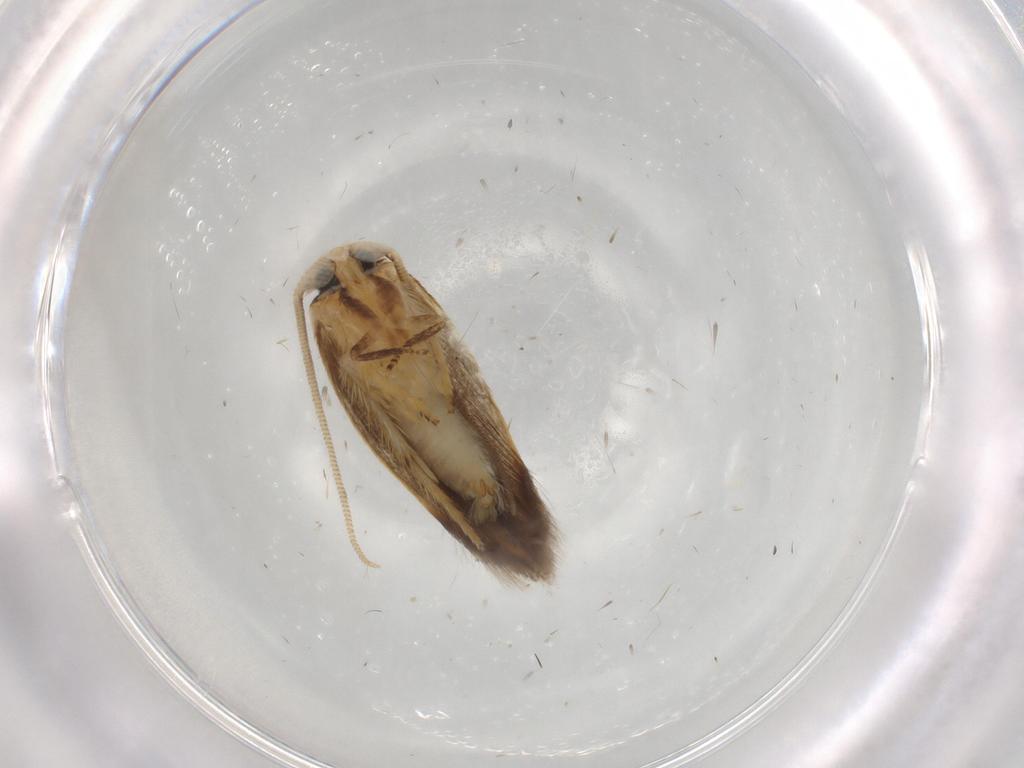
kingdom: Animalia
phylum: Arthropoda
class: Insecta
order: Lepidoptera
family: Opostegidae
